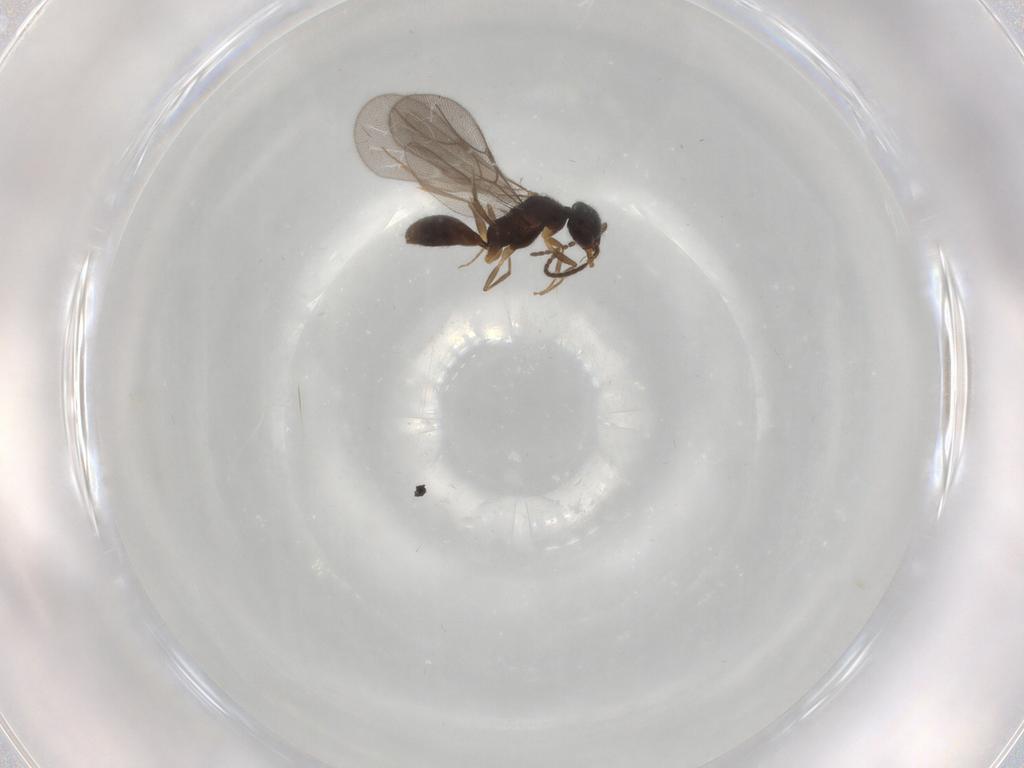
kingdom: Animalia
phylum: Arthropoda
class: Insecta
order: Hymenoptera
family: Bethylidae
